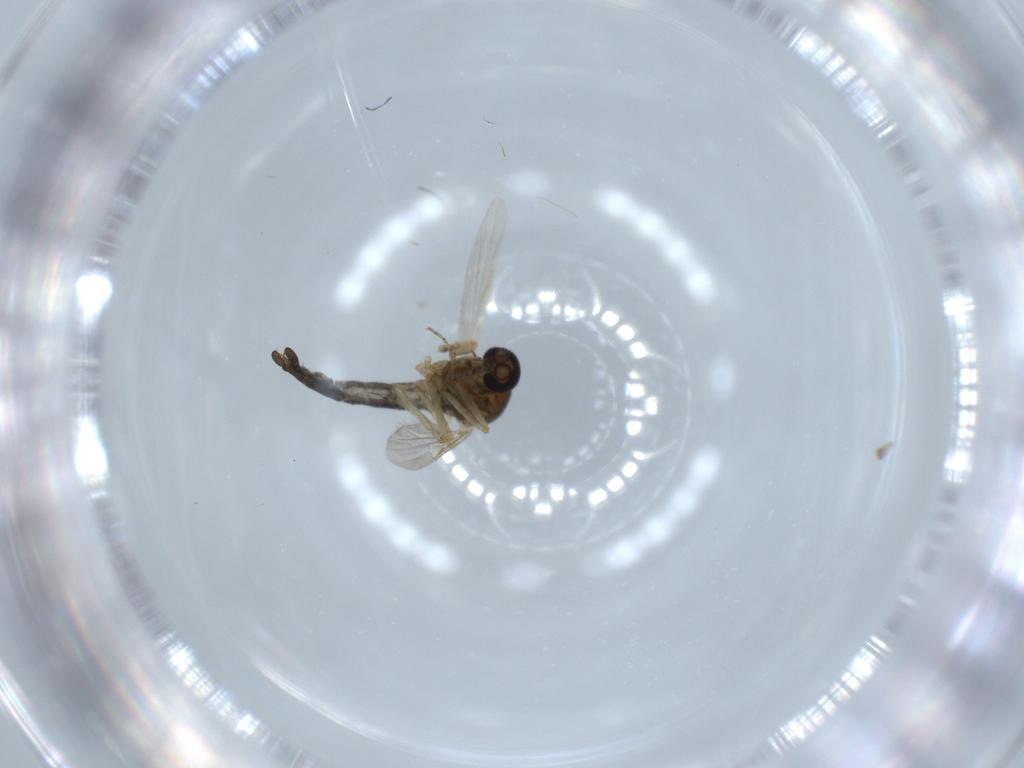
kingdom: Animalia
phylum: Arthropoda
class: Insecta
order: Diptera
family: Ceratopogonidae
